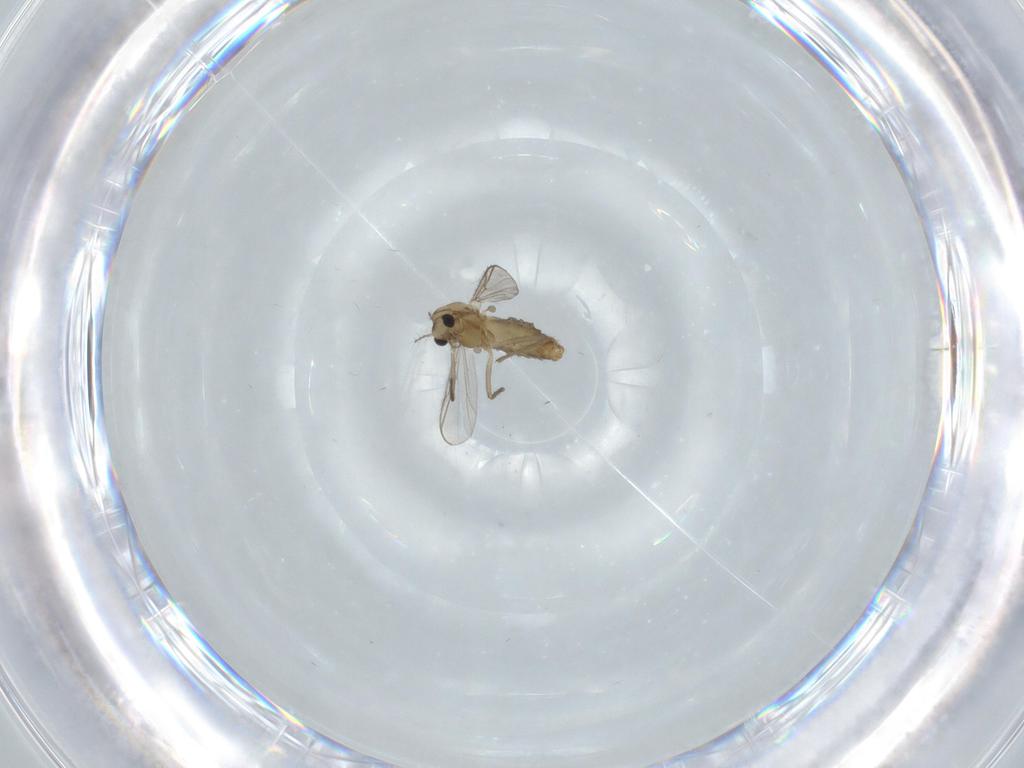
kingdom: Animalia
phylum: Arthropoda
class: Insecta
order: Diptera
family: Chironomidae
